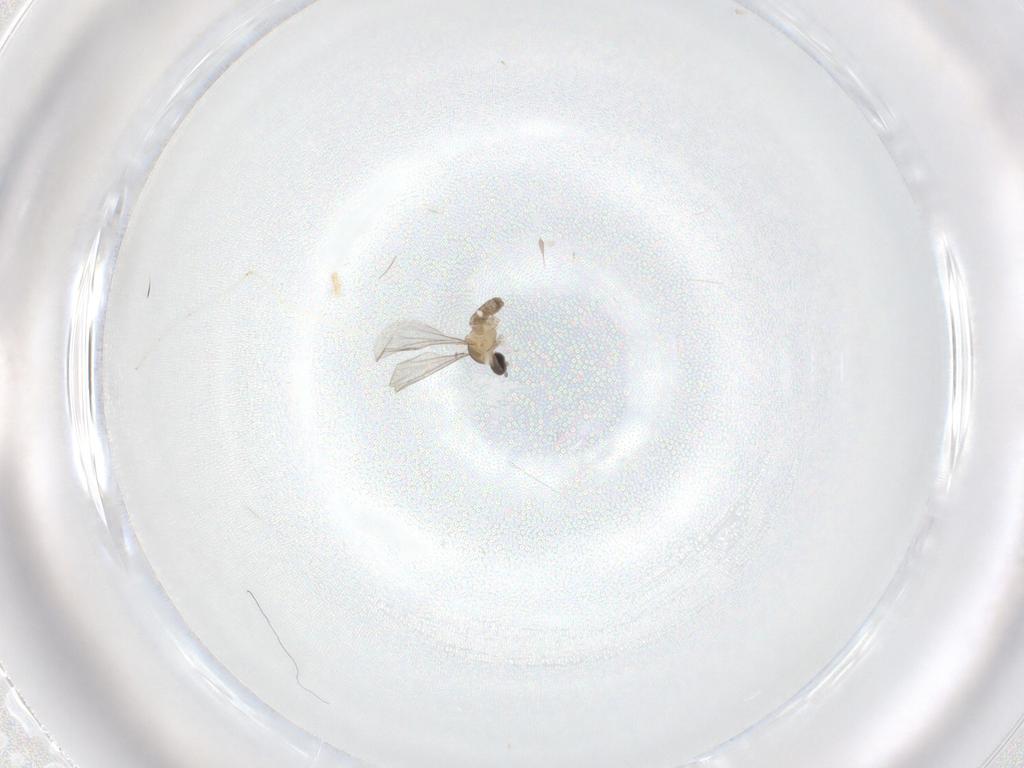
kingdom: Animalia
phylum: Arthropoda
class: Insecta
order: Diptera
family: Cecidomyiidae
